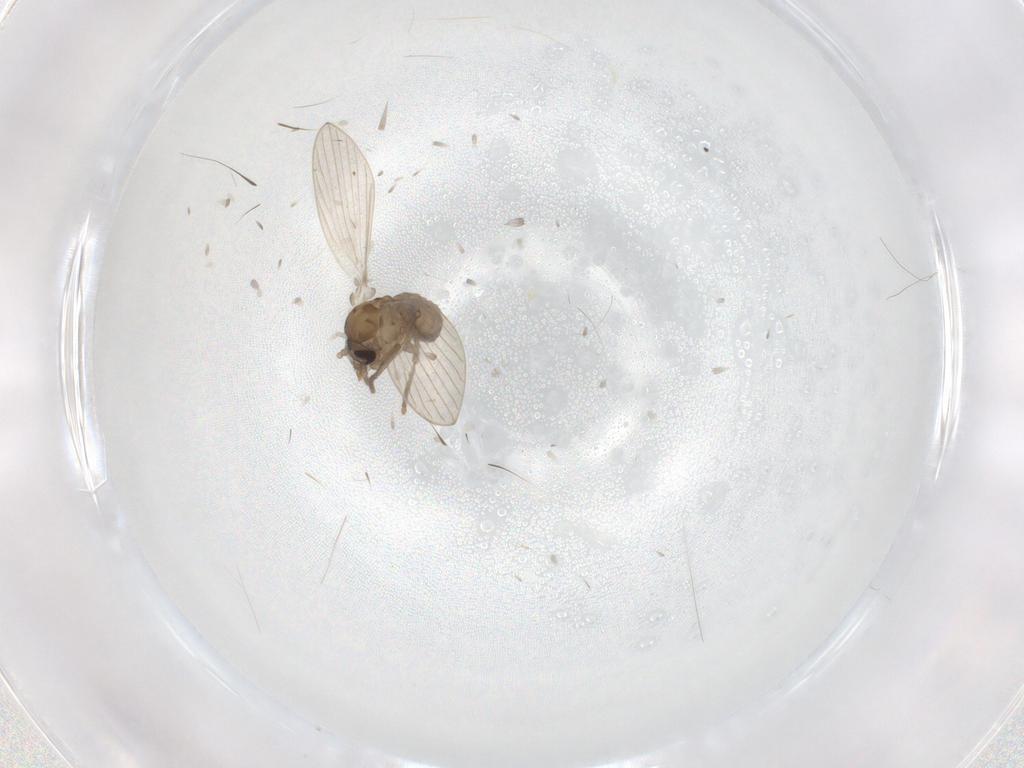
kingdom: Animalia
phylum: Arthropoda
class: Insecta
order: Diptera
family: Psychodidae
